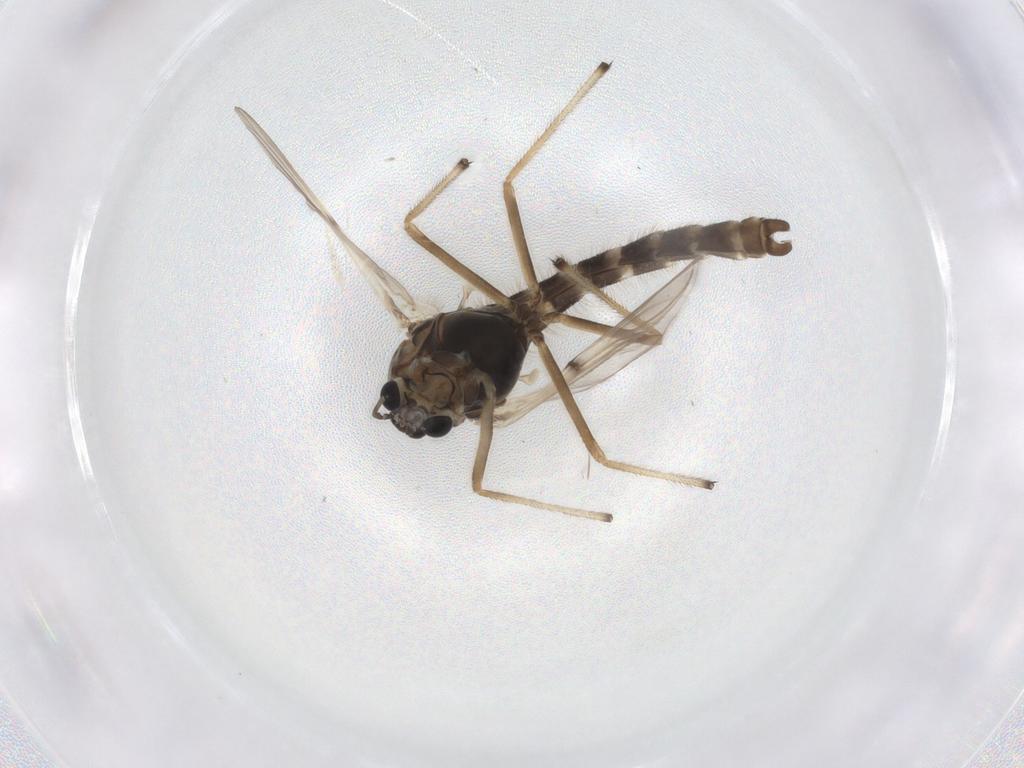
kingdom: Animalia
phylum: Arthropoda
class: Insecta
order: Diptera
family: Chironomidae
